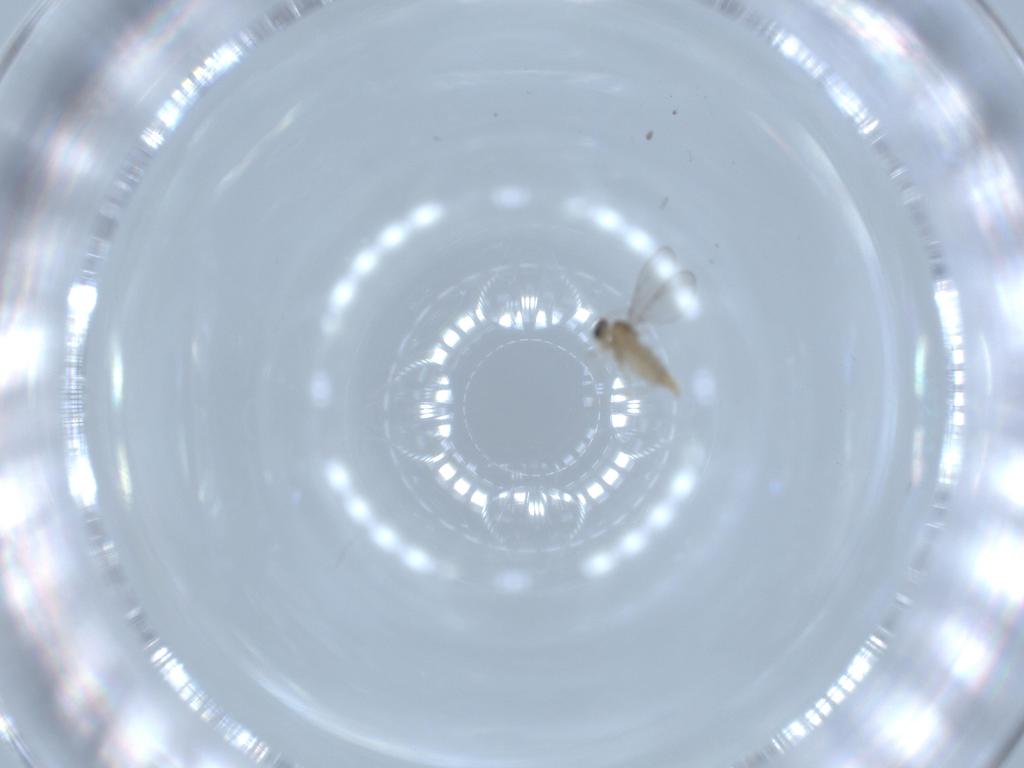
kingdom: Animalia
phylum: Arthropoda
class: Insecta
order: Diptera
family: Cecidomyiidae
